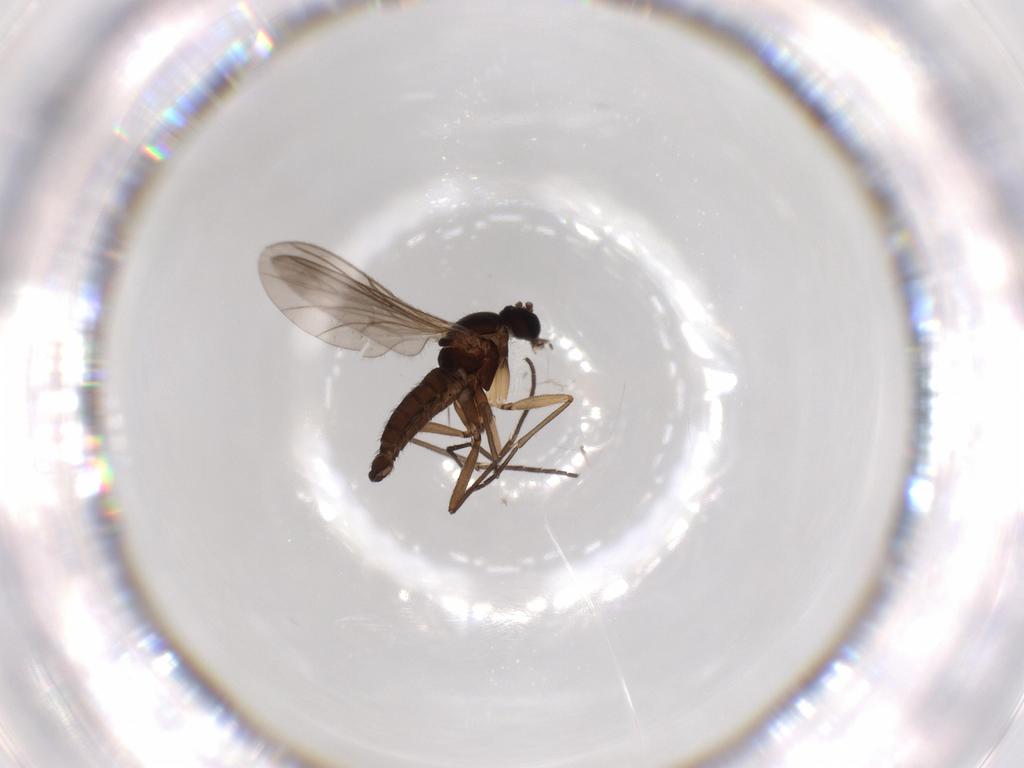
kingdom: Animalia
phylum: Arthropoda
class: Insecta
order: Diptera
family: Sciaridae
